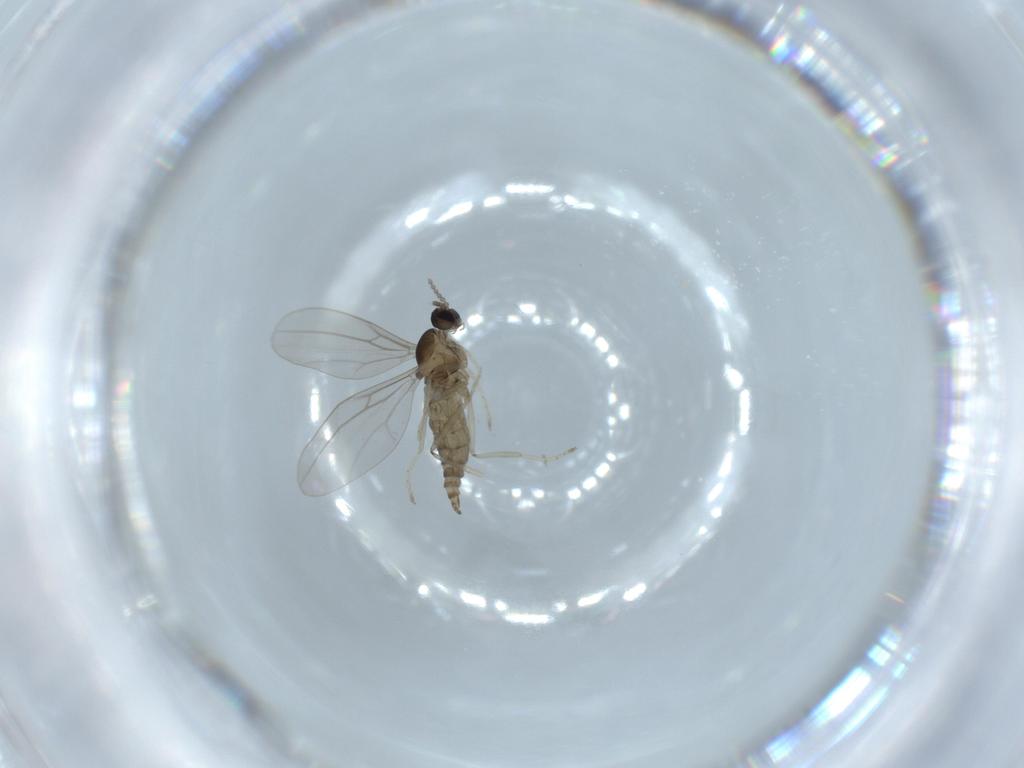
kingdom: Animalia
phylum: Arthropoda
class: Insecta
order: Diptera
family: Cecidomyiidae
